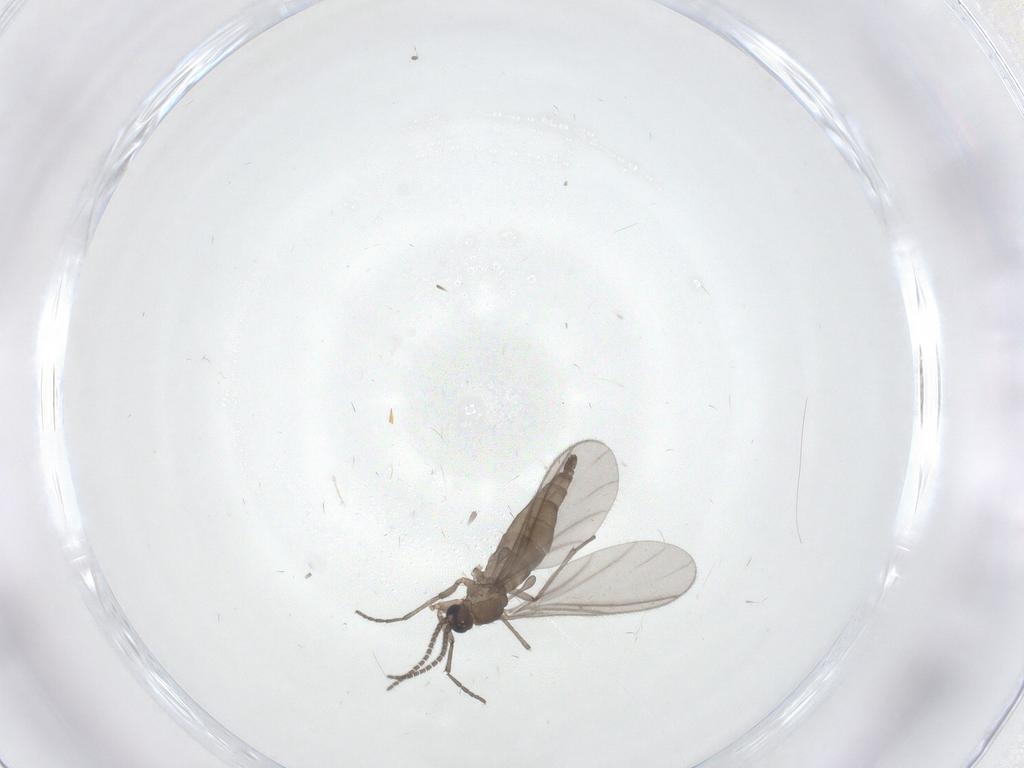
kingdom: Animalia
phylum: Arthropoda
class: Insecta
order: Diptera
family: Sciaridae
